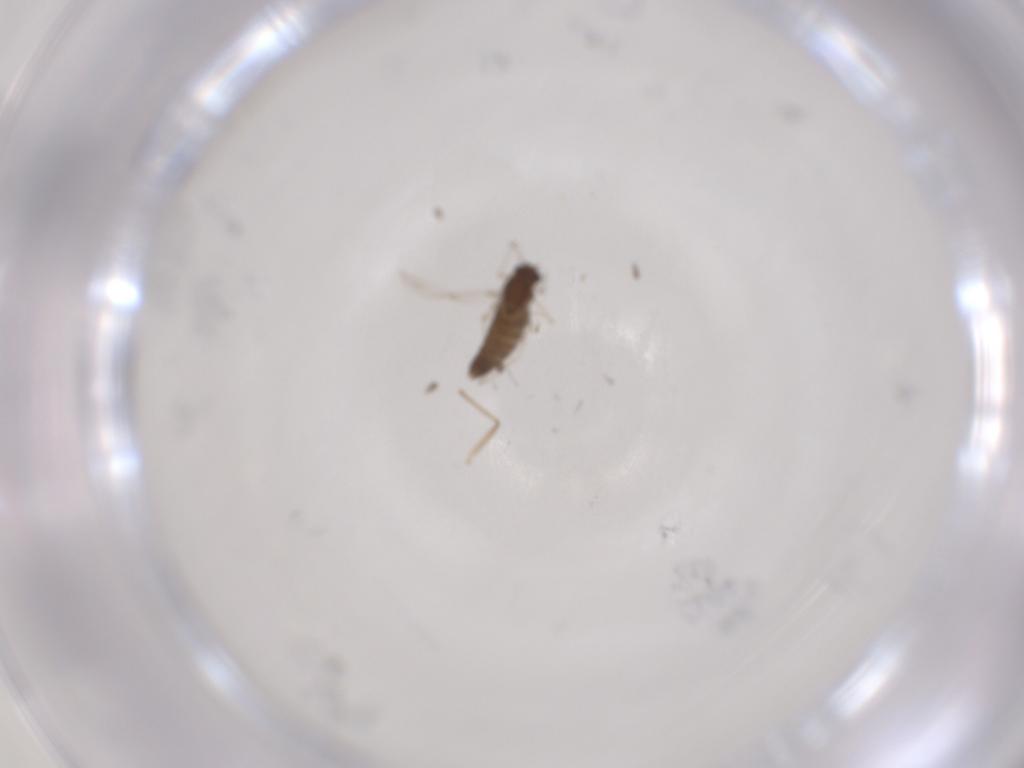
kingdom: Animalia
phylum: Arthropoda
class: Insecta
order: Diptera
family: Chironomidae
